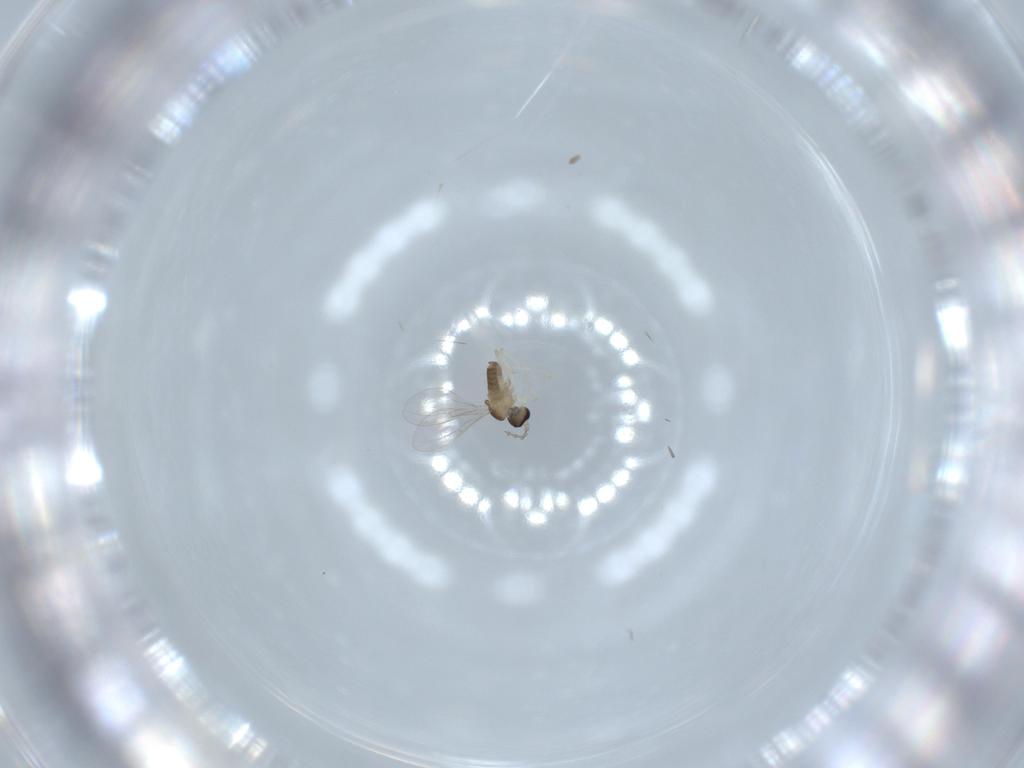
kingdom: Animalia
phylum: Arthropoda
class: Insecta
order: Diptera
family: Cecidomyiidae
